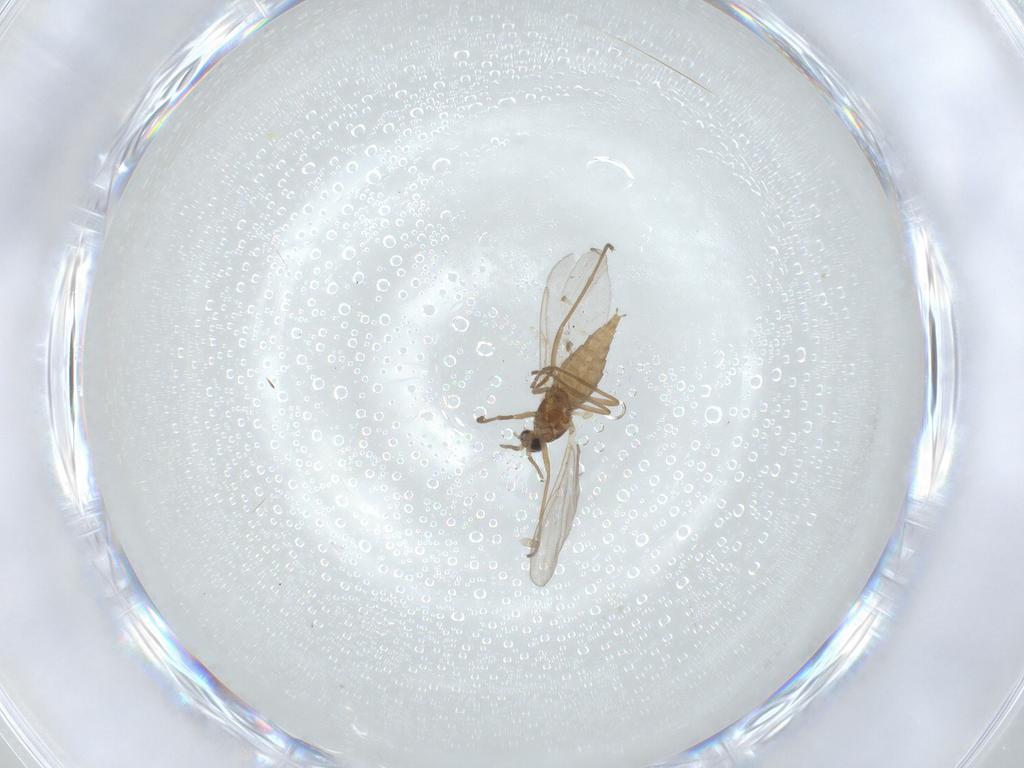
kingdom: Animalia
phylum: Arthropoda
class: Insecta
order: Diptera
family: Cecidomyiidae
